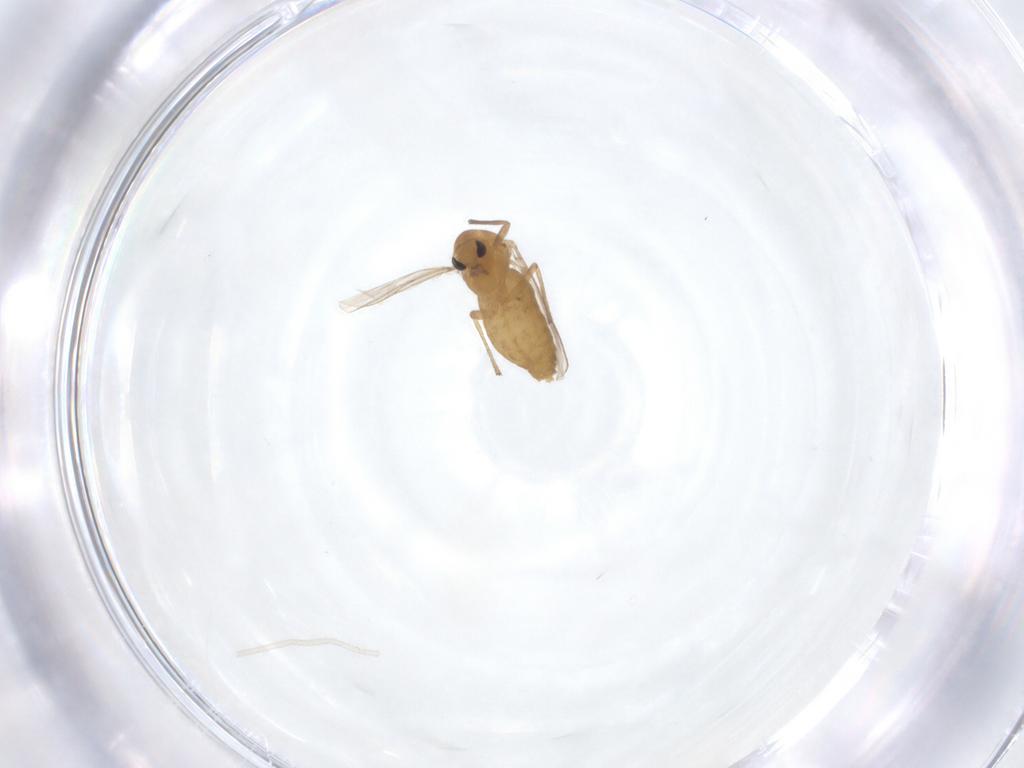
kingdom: Animalia
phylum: Arthropoda
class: Insecta
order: Diptera
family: Chironomidae
